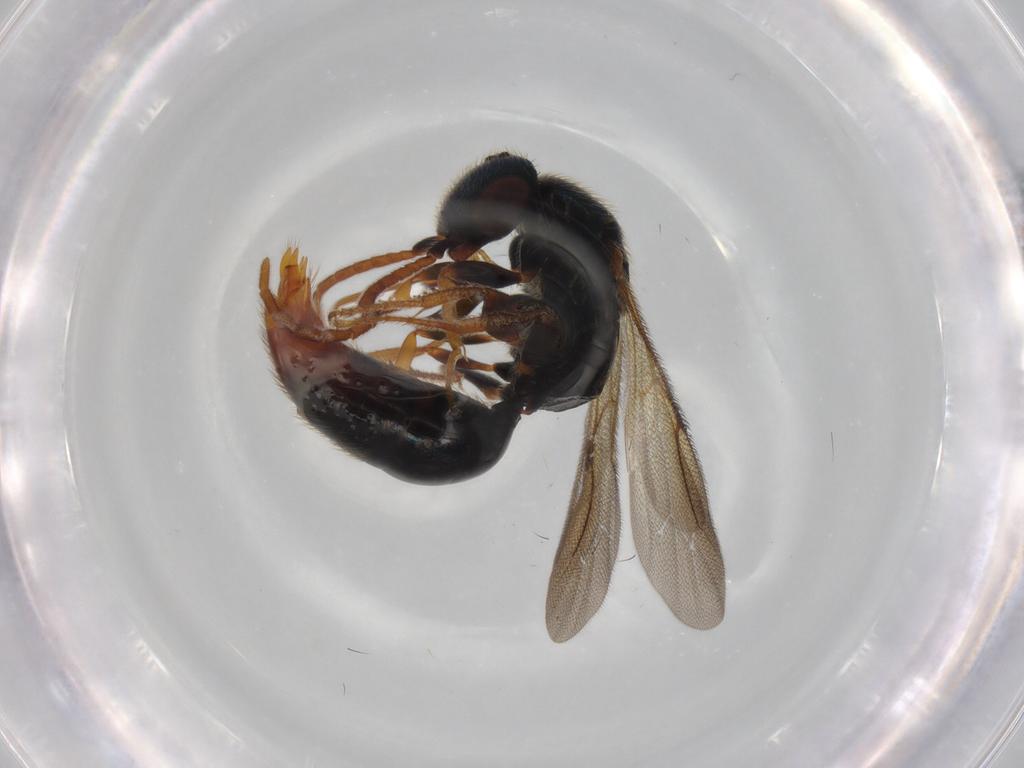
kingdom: Animalia
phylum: Arthropoda
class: Insecta
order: Hymenoptera
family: Bethylidae
